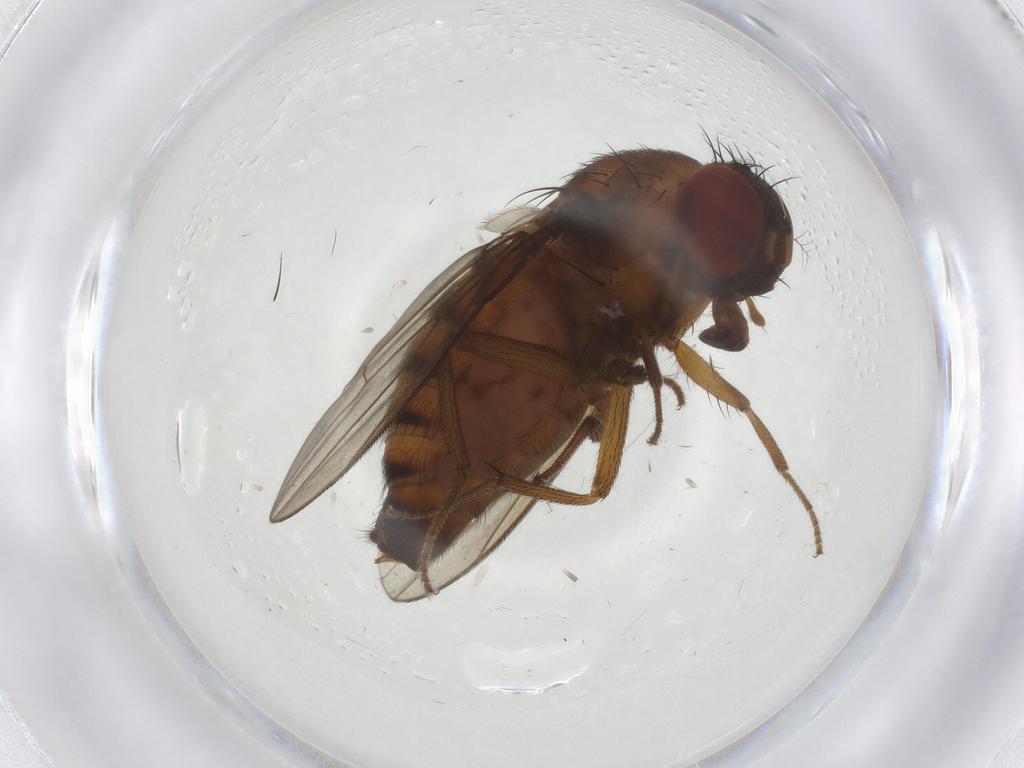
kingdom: Animalia
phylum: Arthropoda
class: Insecta
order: Diptera
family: Drosophilidae
